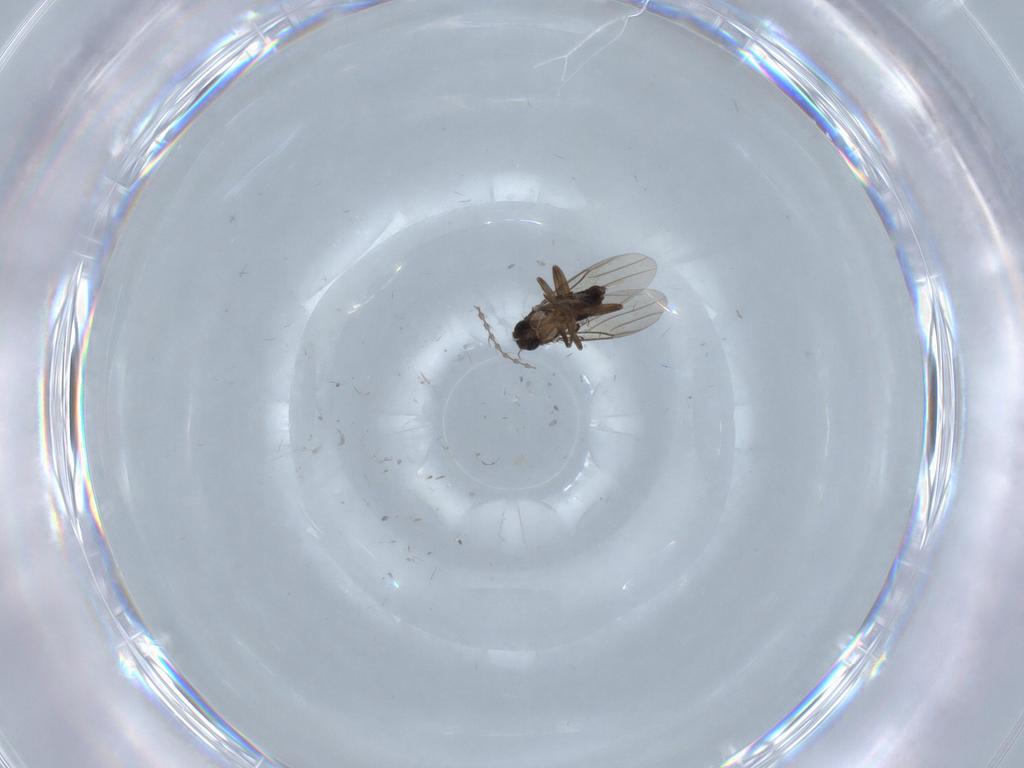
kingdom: Animalia
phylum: Arthropoda
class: Insecta
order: Diptera
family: Phoridae
